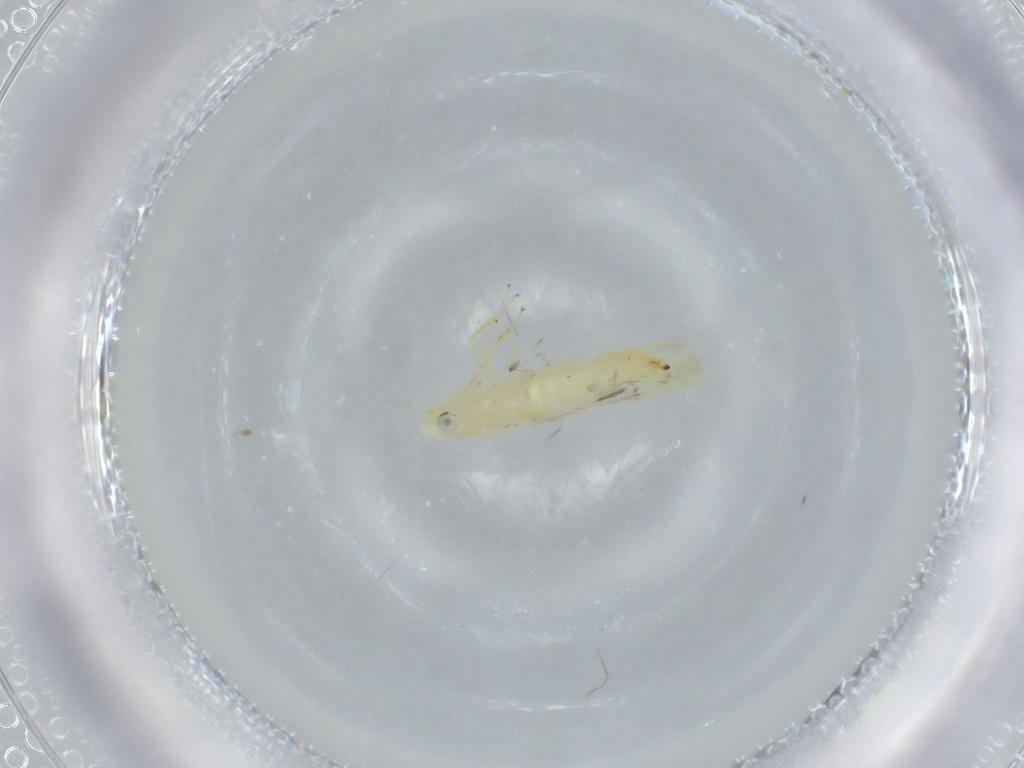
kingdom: Animalia
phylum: Arthropoda
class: Insecta
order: Hemiptera
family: Cicadellidae
